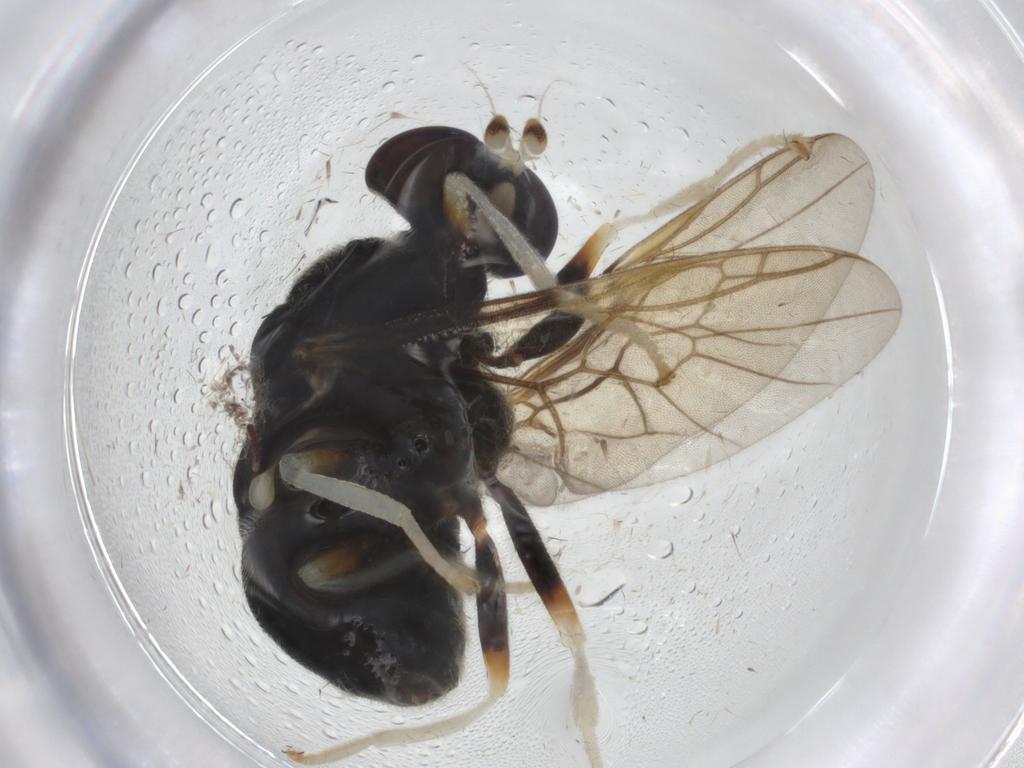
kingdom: Animalia
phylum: Arthropoda
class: Insecta
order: Diptera
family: Stratiomyidae
